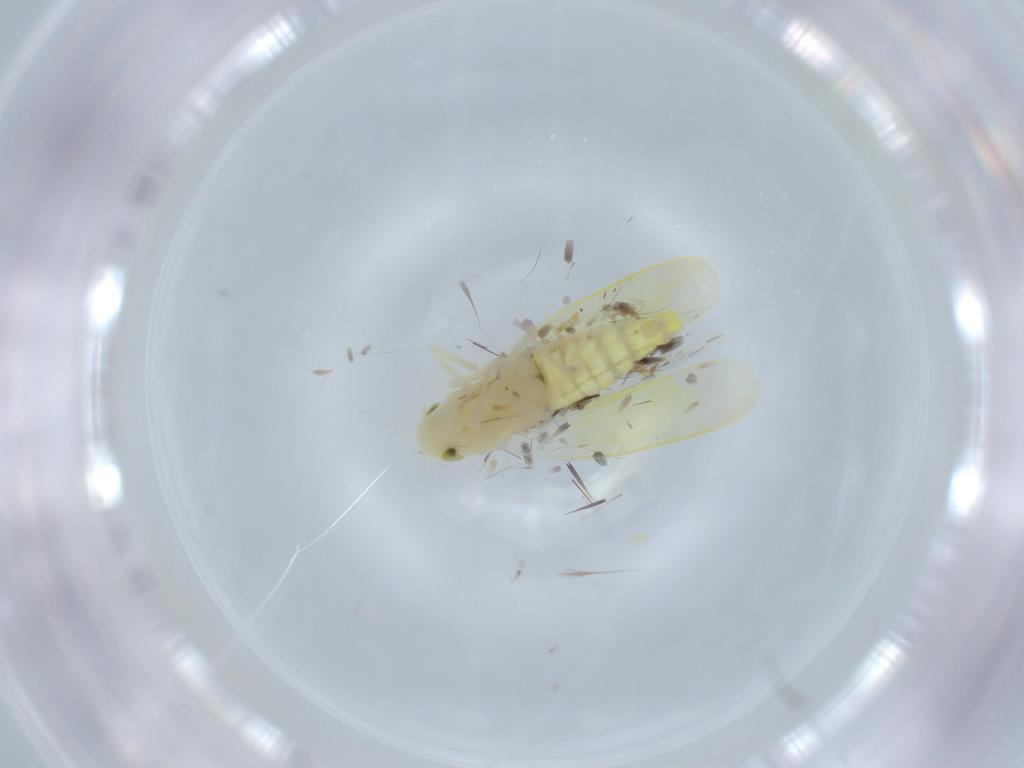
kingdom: Animalia
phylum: Arthropoda
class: Insecta
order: Hemiptera
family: Cicadellidae
